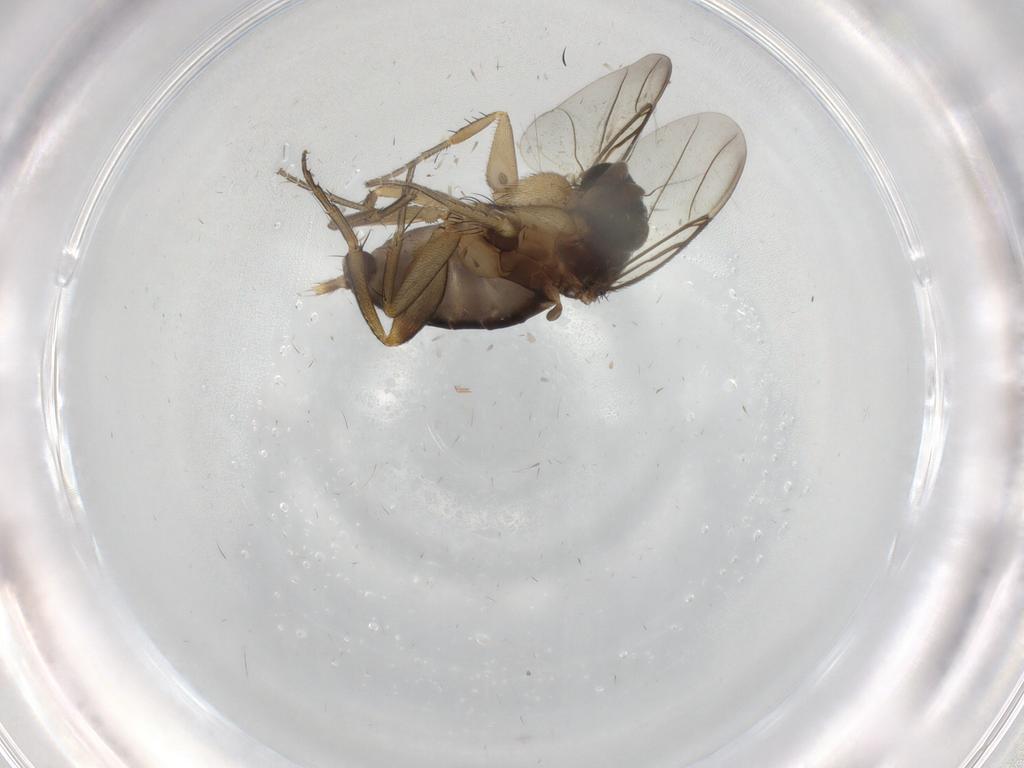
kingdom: Animalia
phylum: Arthropoda
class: Insecta
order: Diptera
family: Phoridae
